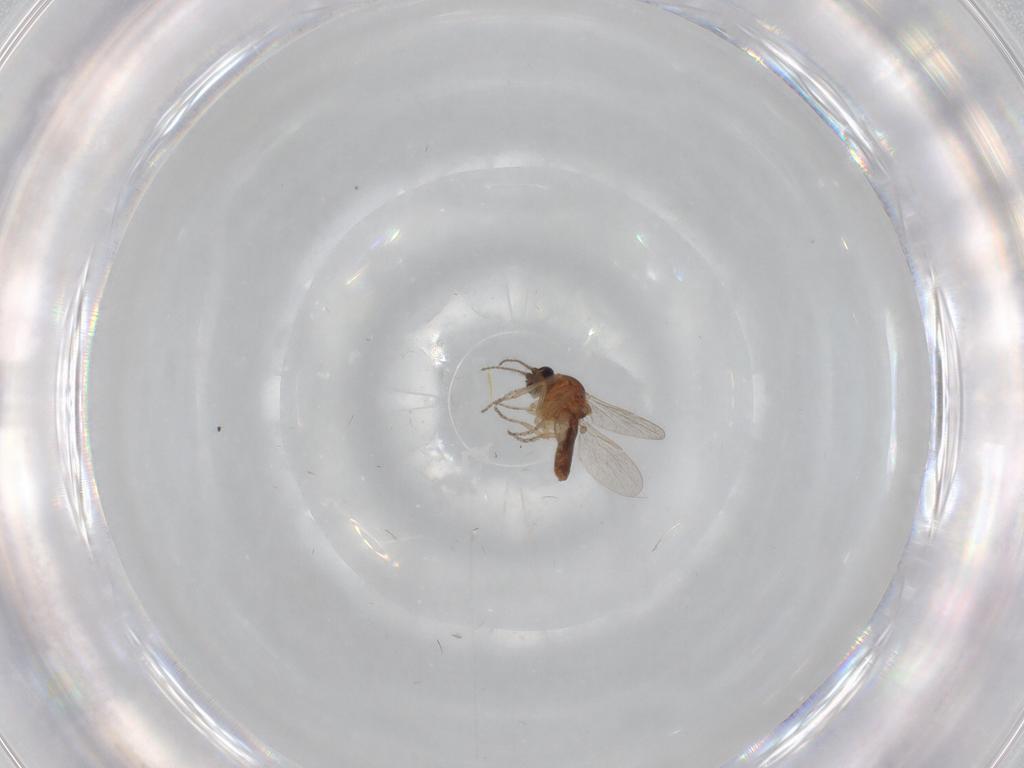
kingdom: Animalia
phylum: Arthropoda
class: Insecta
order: Diptera
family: Ceratopogonidae
